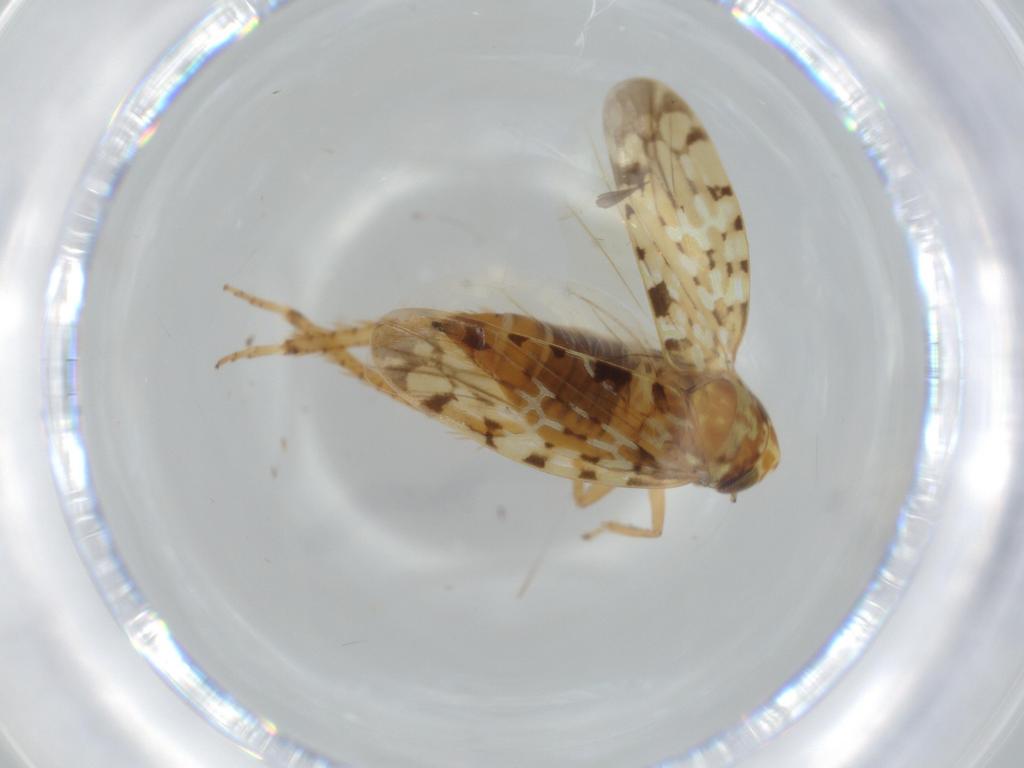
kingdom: Animalia
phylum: Arthropoda
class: Insecta
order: Hemiptera
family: Cicadellidae
